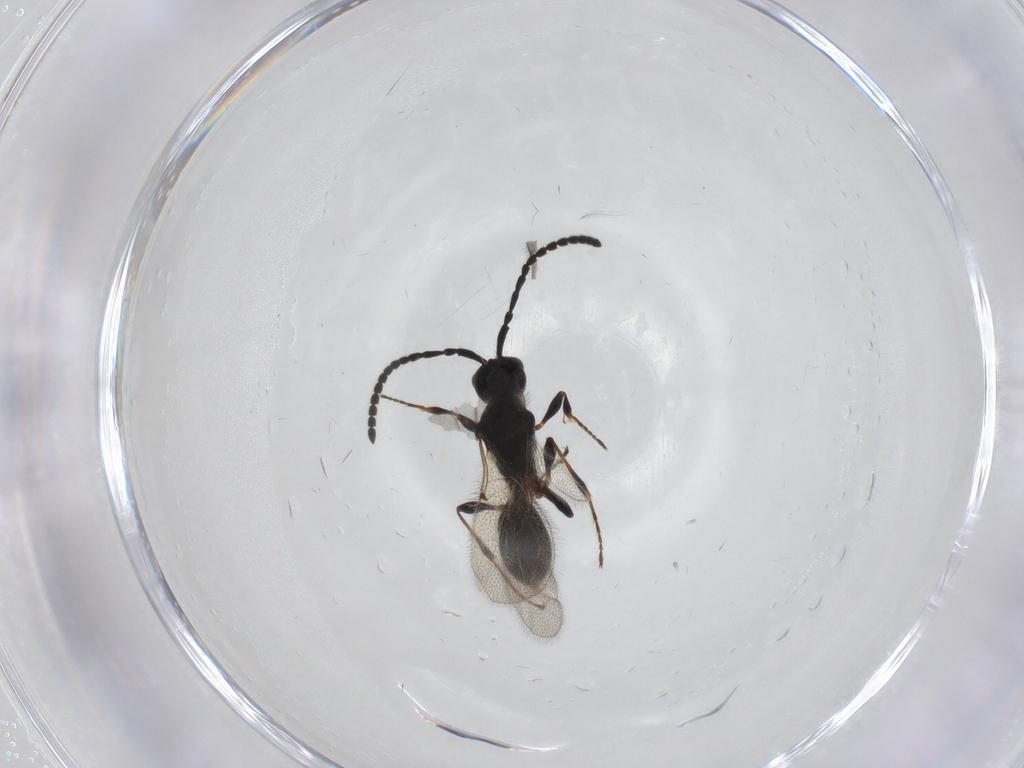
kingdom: Animalia
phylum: Arthropoda
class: Insecta
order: Hymenoptera
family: Diapriidae
